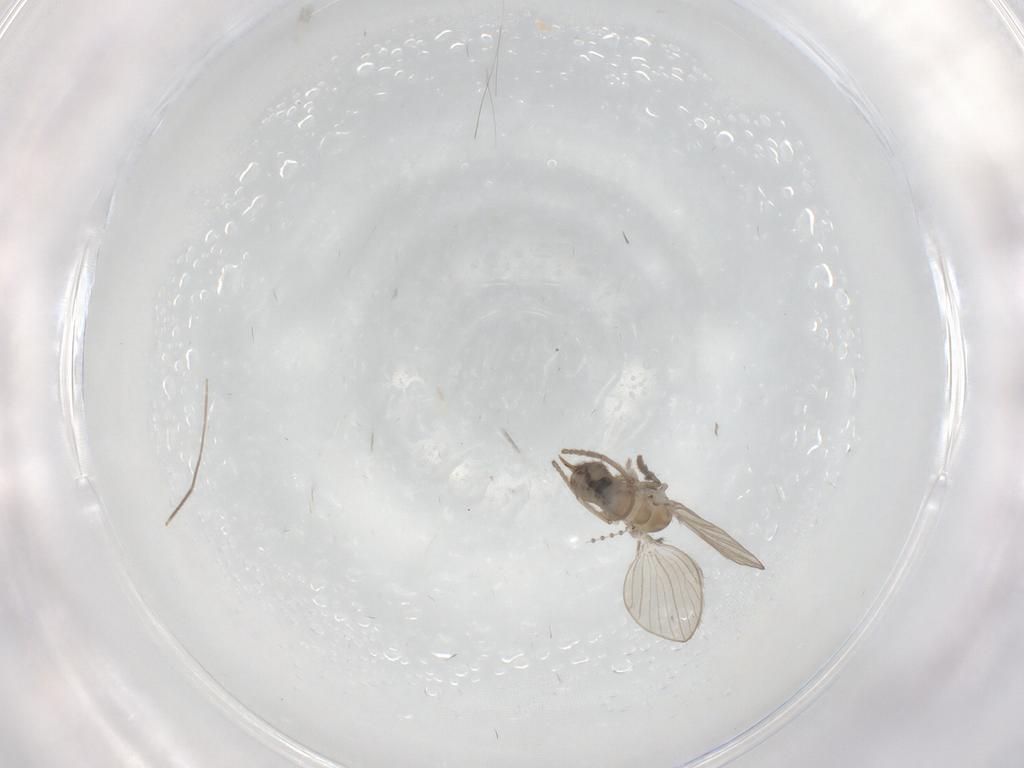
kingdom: Animalia
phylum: Arthropoda
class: Insecta
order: Diptera
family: Psychodidae
